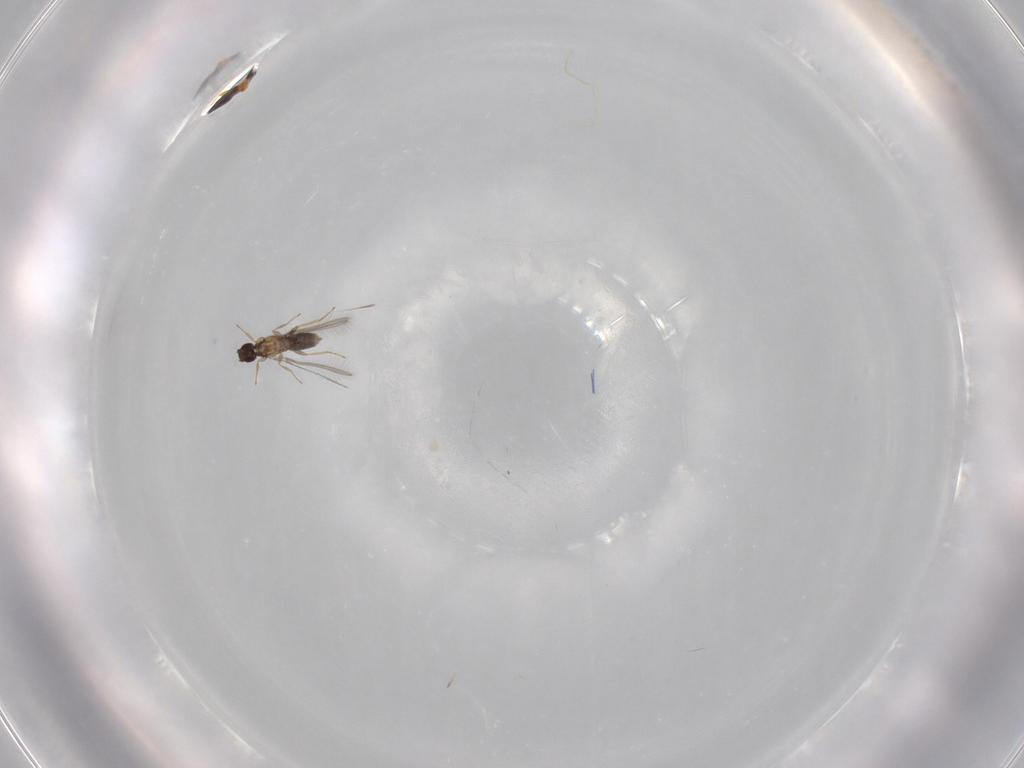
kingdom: Animalia
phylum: Arthropoda
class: Insecta
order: Hymenoptera
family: Platygastridae
